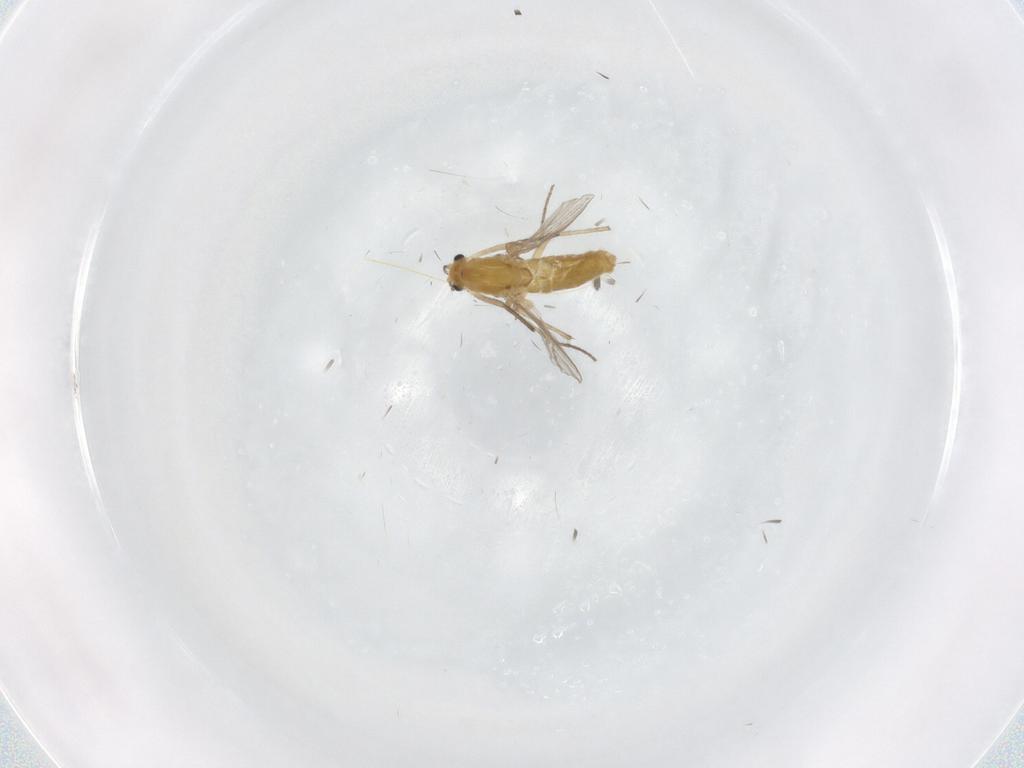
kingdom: Animalia
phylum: Arthropoda
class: Insecta
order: Diptera
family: Chironomidae
